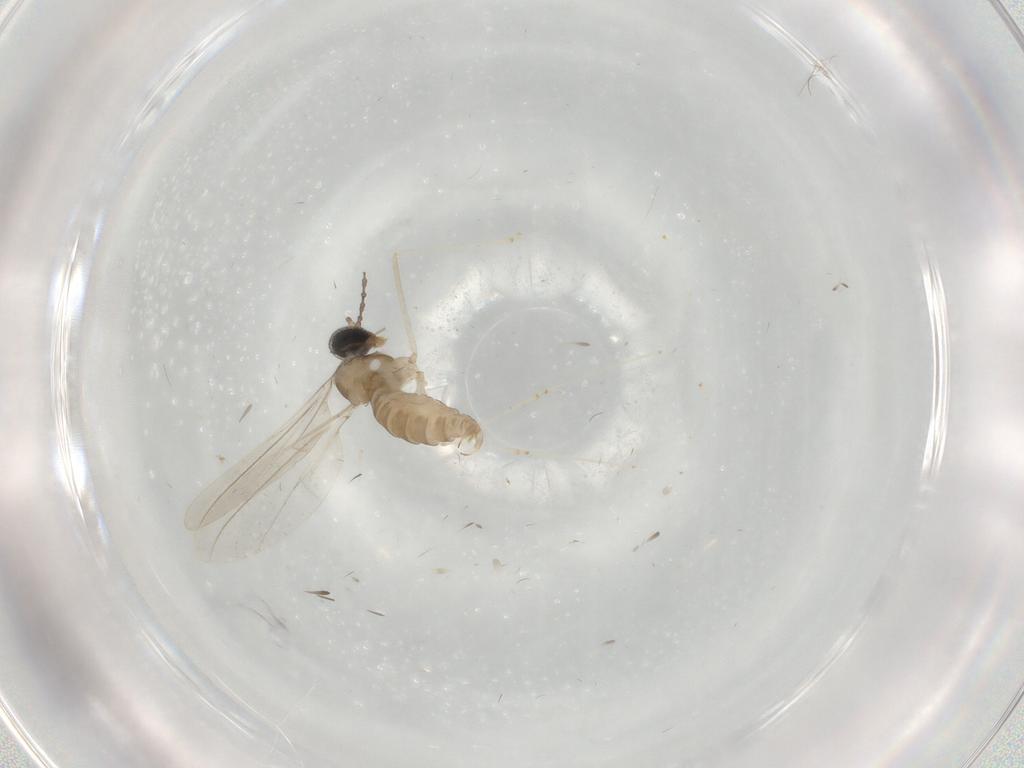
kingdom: Animalia
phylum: Arthropoda
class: Insecta
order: Diptera
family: Cecidomyiidae
